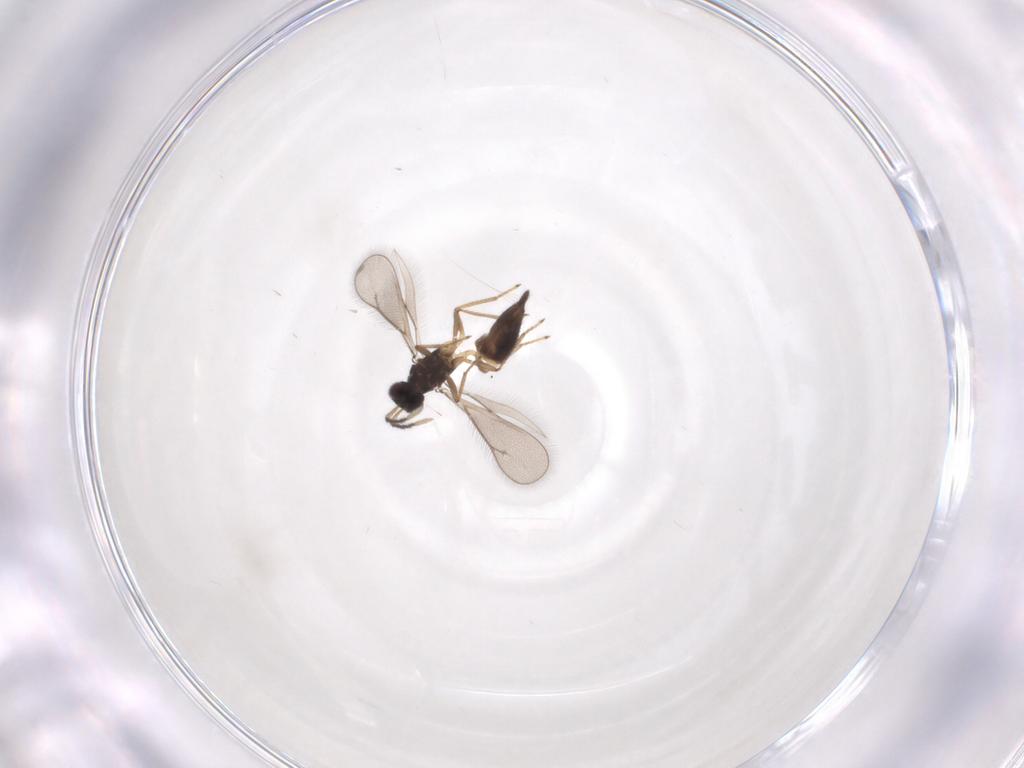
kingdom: Animalia
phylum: Arthropoda
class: Insecta
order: Hymenoptera
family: Eulophidae
